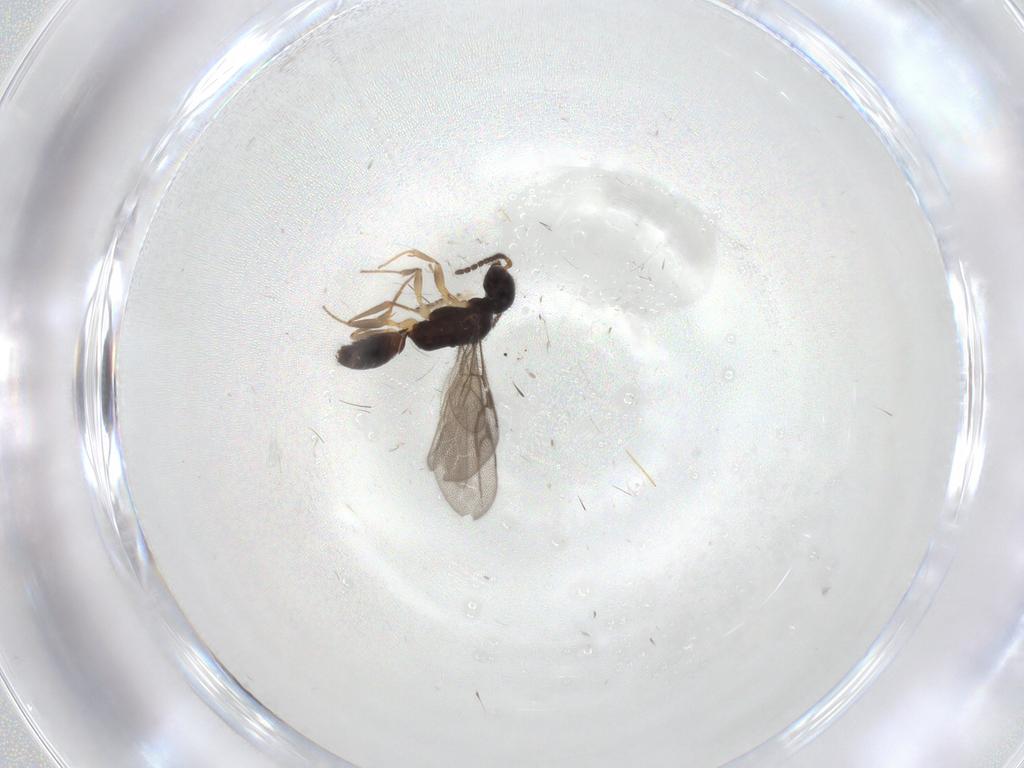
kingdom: Animalia
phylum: Arthropoda
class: Insecta
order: Hymenoptera
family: Bethylidae
